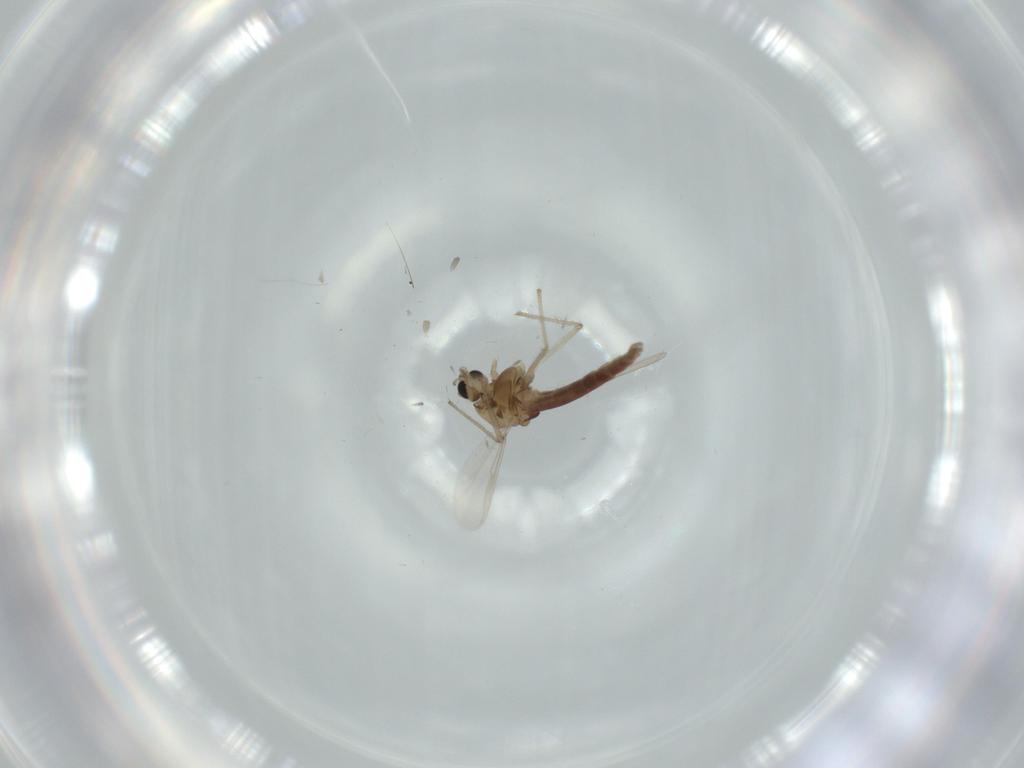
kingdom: Animalia
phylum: Arthropoda
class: Insecta
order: Diptera
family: Chironomidae
